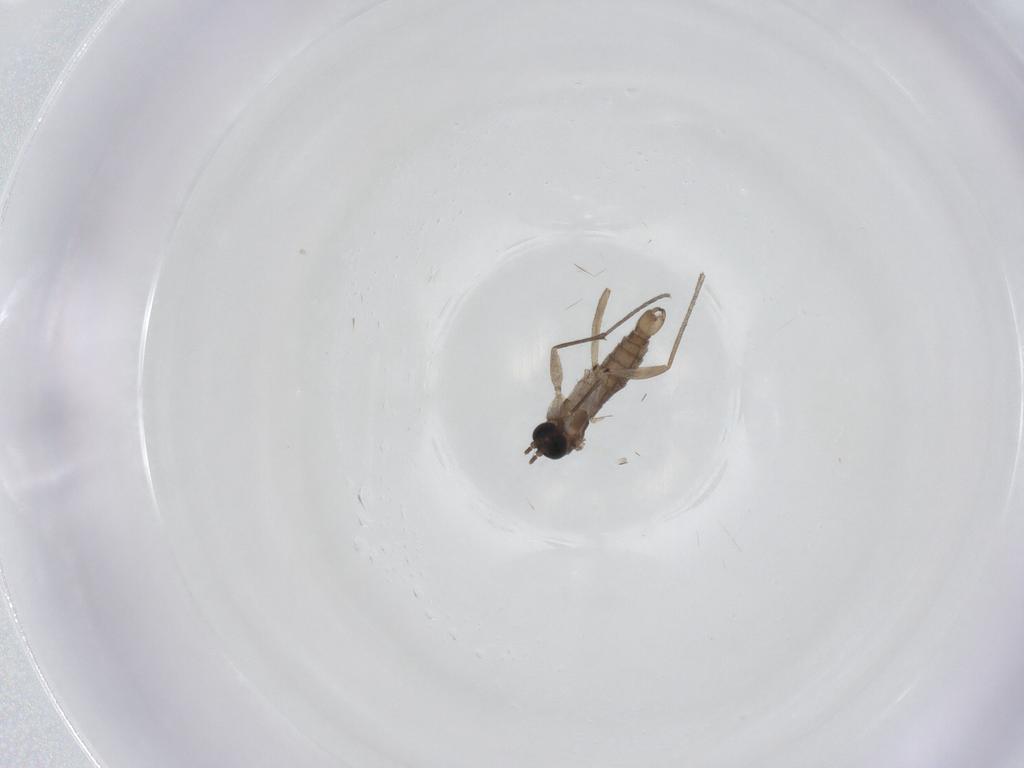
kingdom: Animalia
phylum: Arthropoda
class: Insecta
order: Diptera
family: Sciaridae
